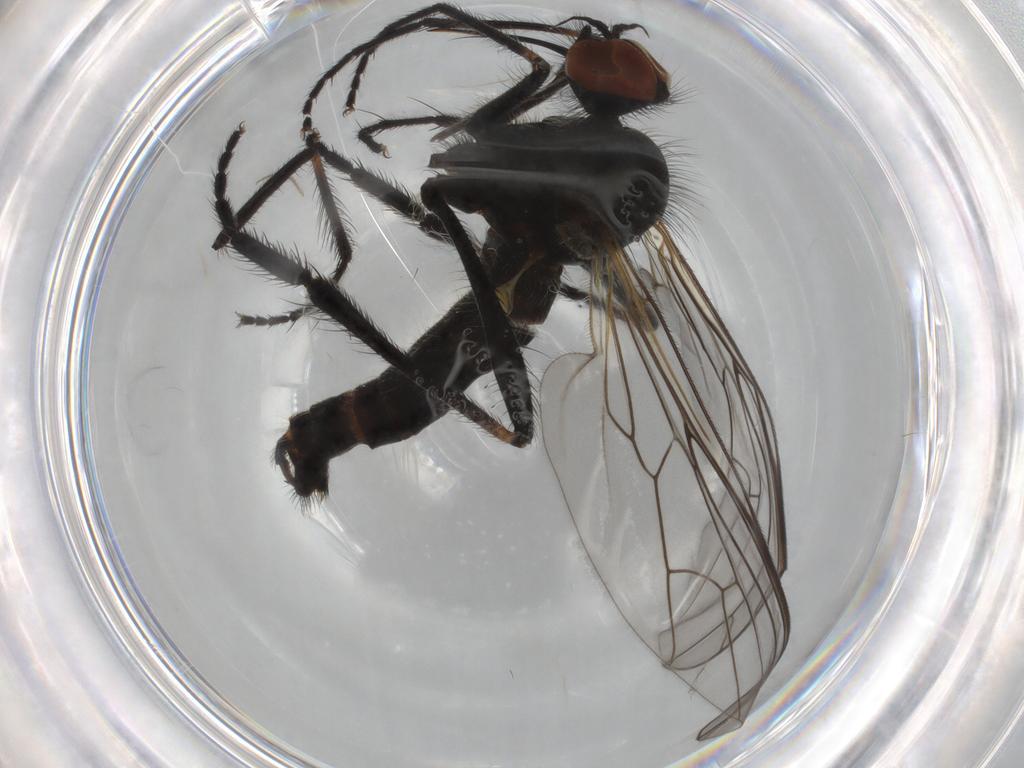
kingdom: Animalia
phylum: Arthropoda
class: Insecta
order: Diptera
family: Empididae
